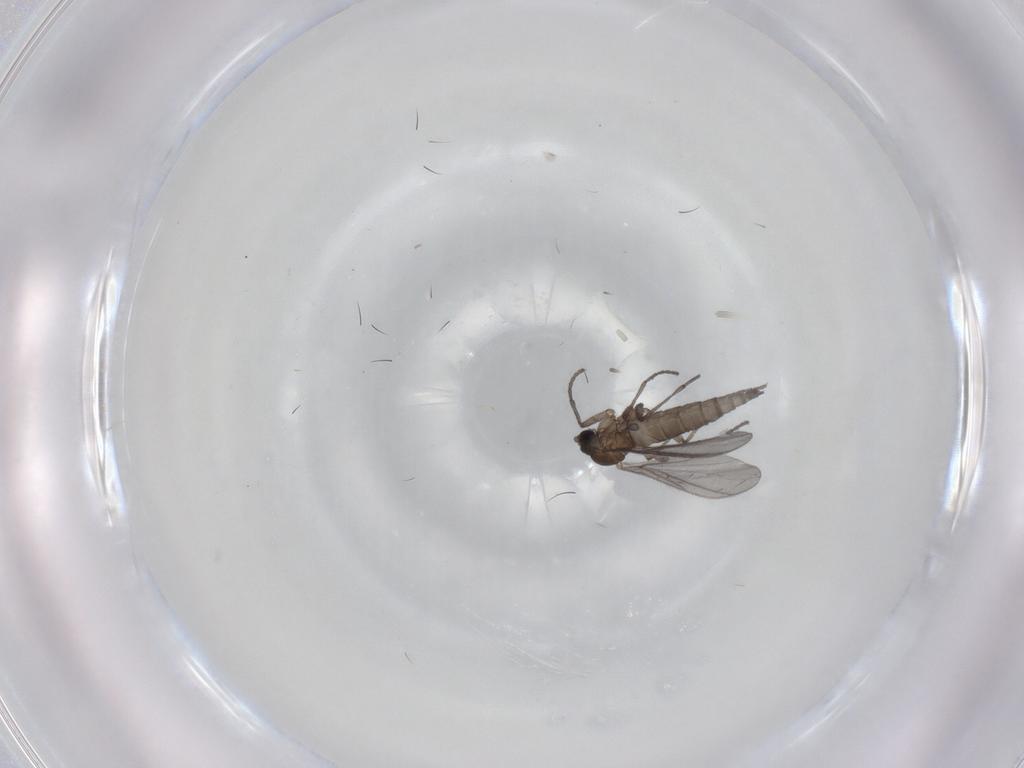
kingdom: Animalia
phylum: Arthropoda
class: Insecta
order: Diptera
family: Sciaridae
